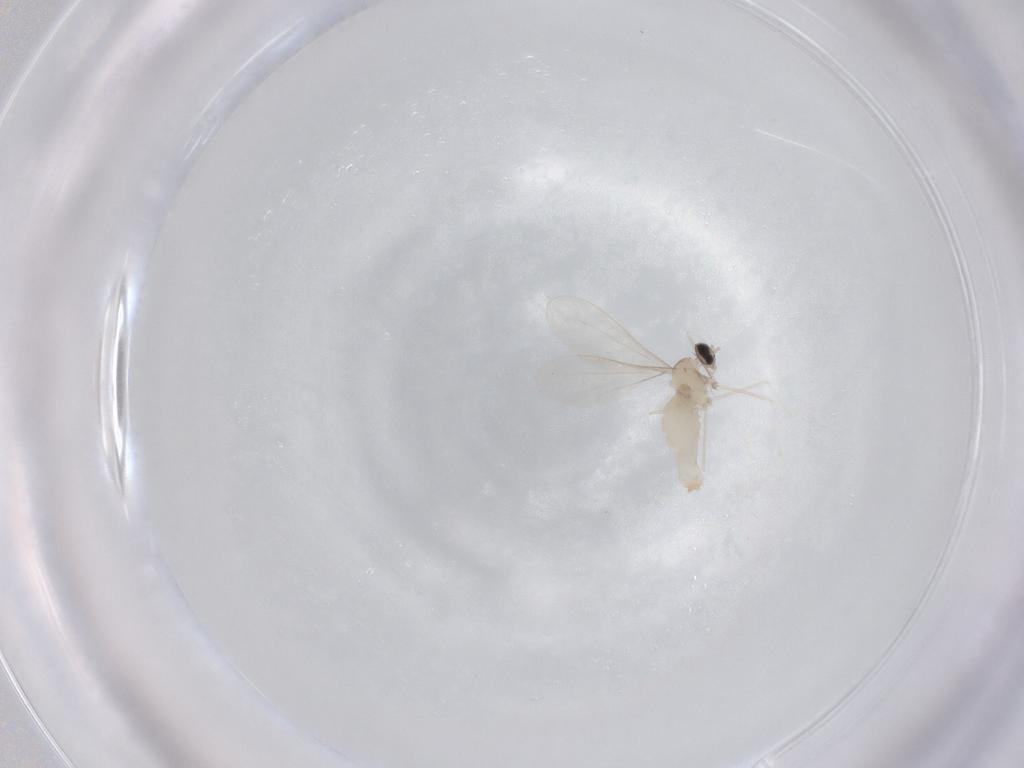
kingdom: Animalia
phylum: Arthropoda
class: Insecta
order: Diptera
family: Cecidomyiidae
